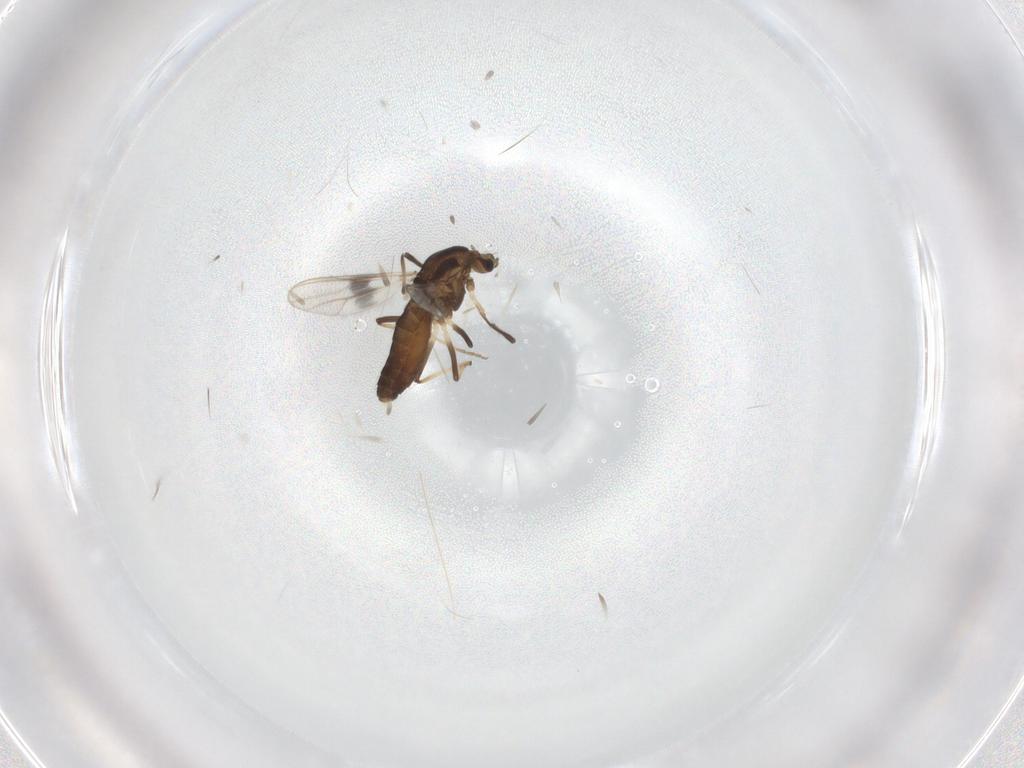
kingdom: Animalia
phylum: Arthropoda
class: Insecta
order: Diptera
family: Chironomidae
